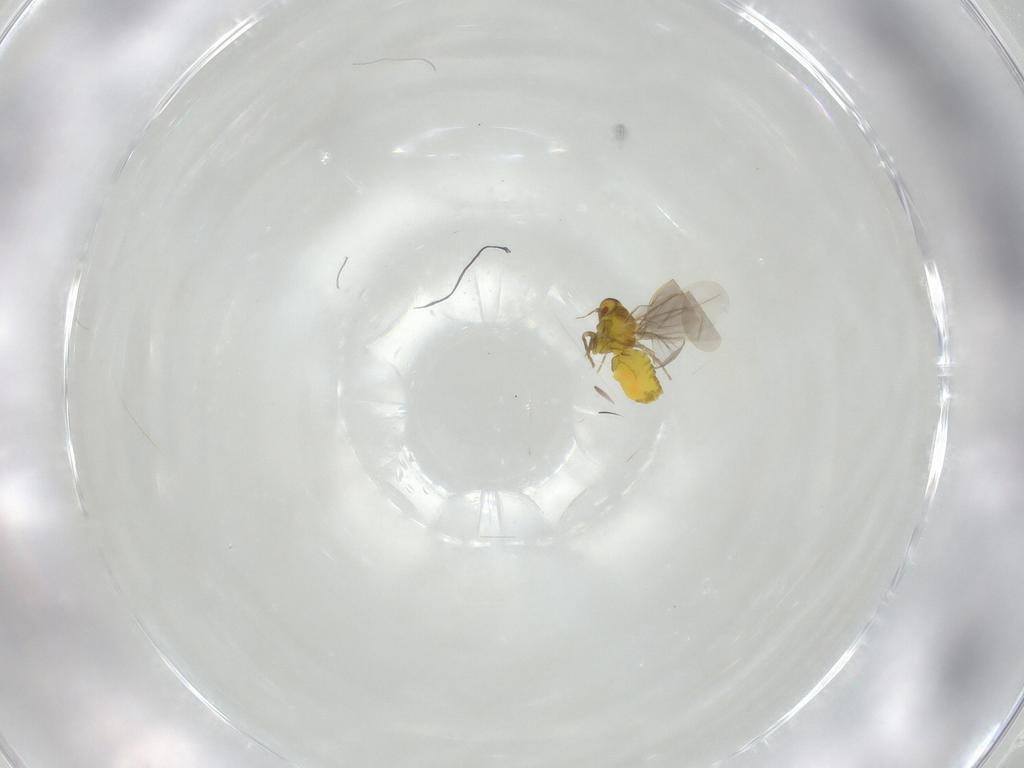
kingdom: Animalia
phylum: Arthropoda
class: Insecta
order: Hemiptera
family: Aleyrodidae
